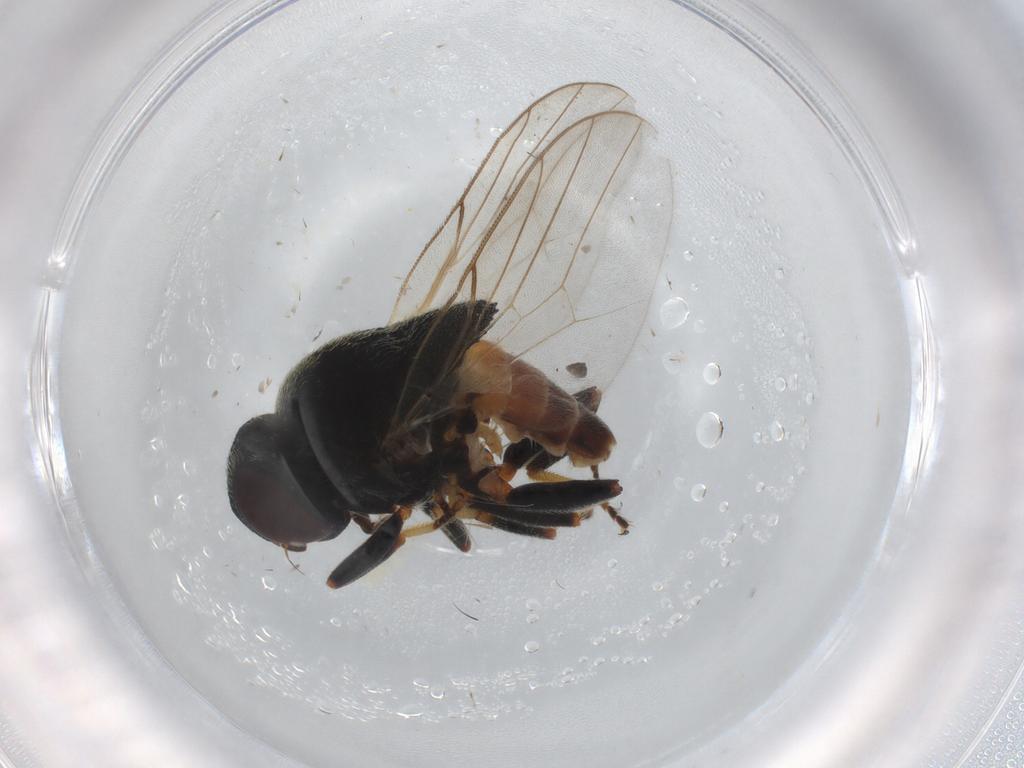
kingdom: Animalia
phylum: Arthropoda
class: Insecta
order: Diptera
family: Chloropidae
